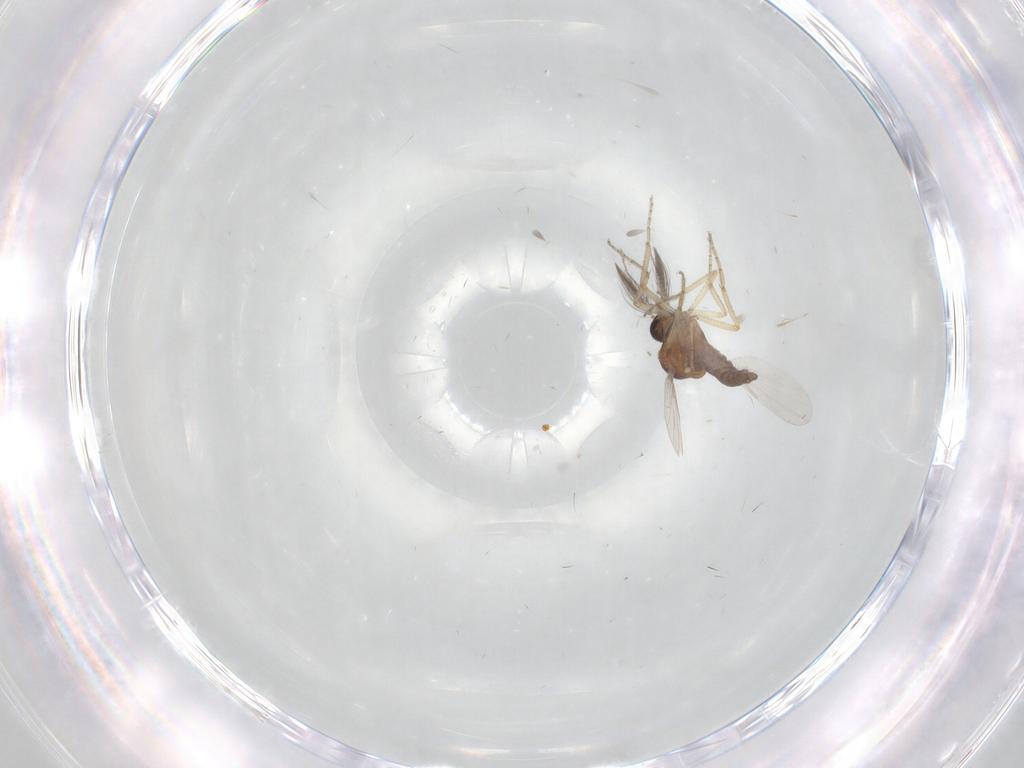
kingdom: Animalia
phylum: Arthropoda
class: Insecta
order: Diptera
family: Ceratopogonidae
